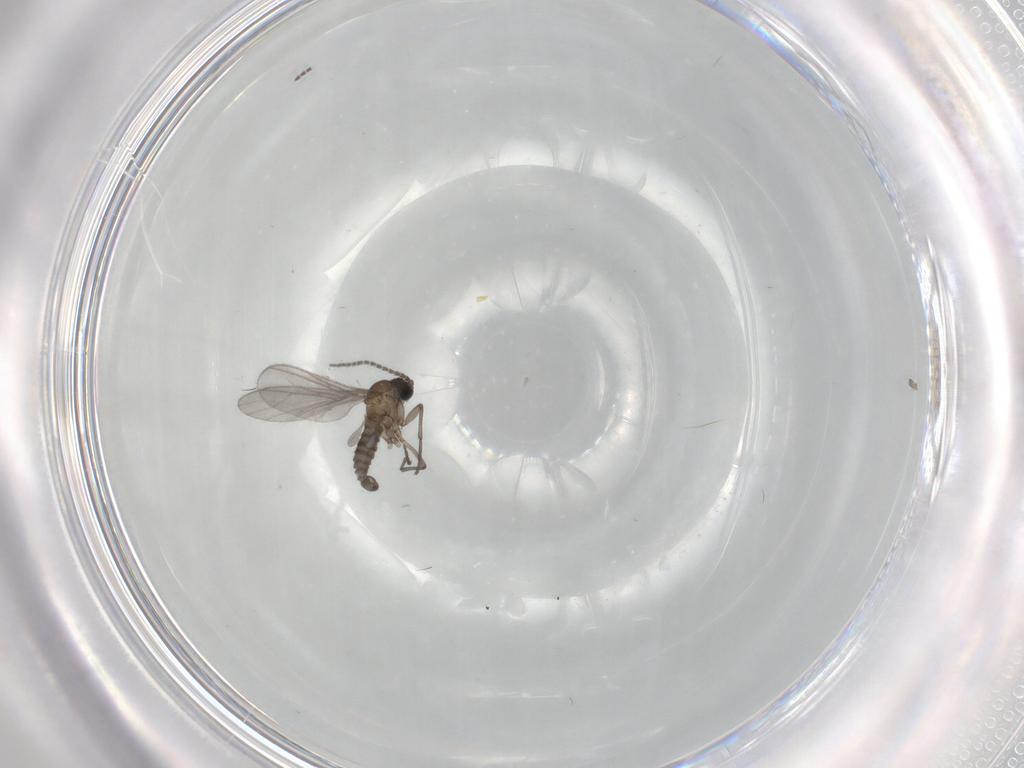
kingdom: Animalia
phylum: Arthropoda
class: Insecta
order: Diptera
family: Sciaridae
